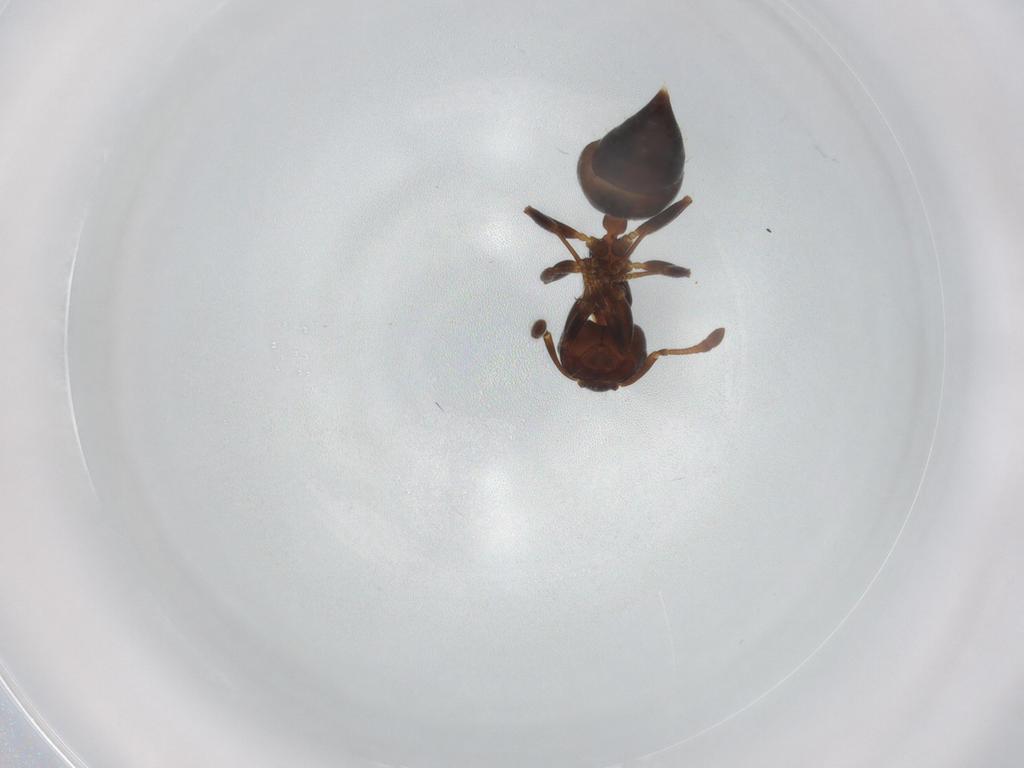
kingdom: Animalia
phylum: Arthropoda
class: Insecta
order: Hymenoptera
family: Formicidae
